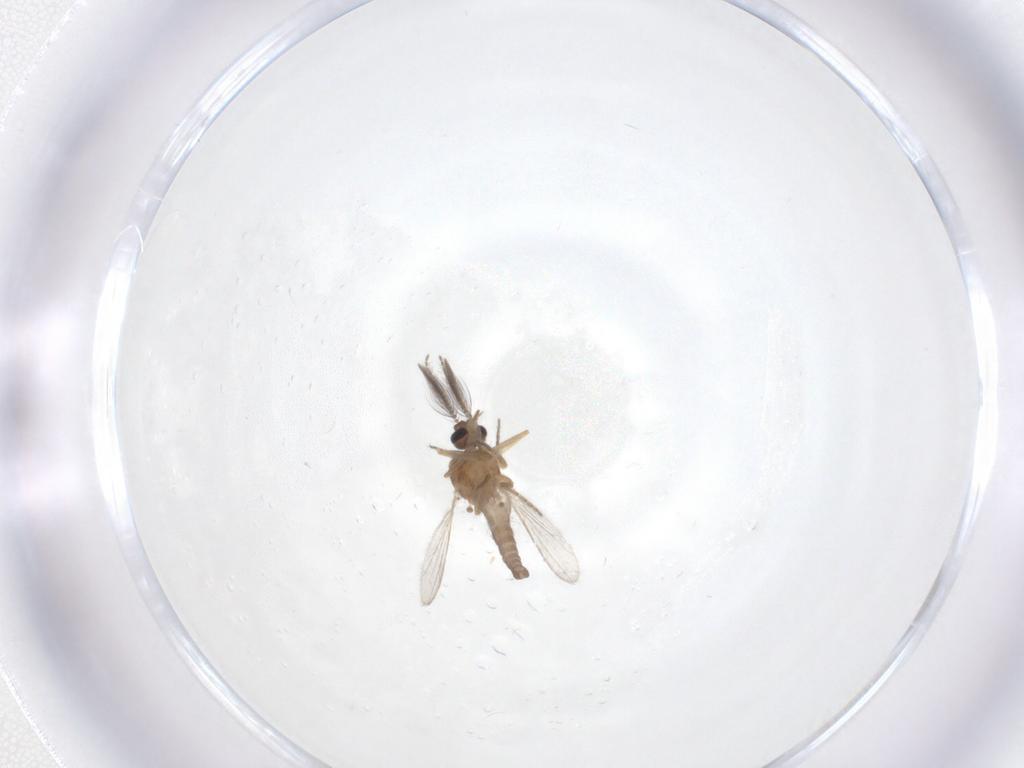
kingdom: Animalia
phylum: Arthropoda
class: Insecta
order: Diptera
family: Ceratopogonidae
